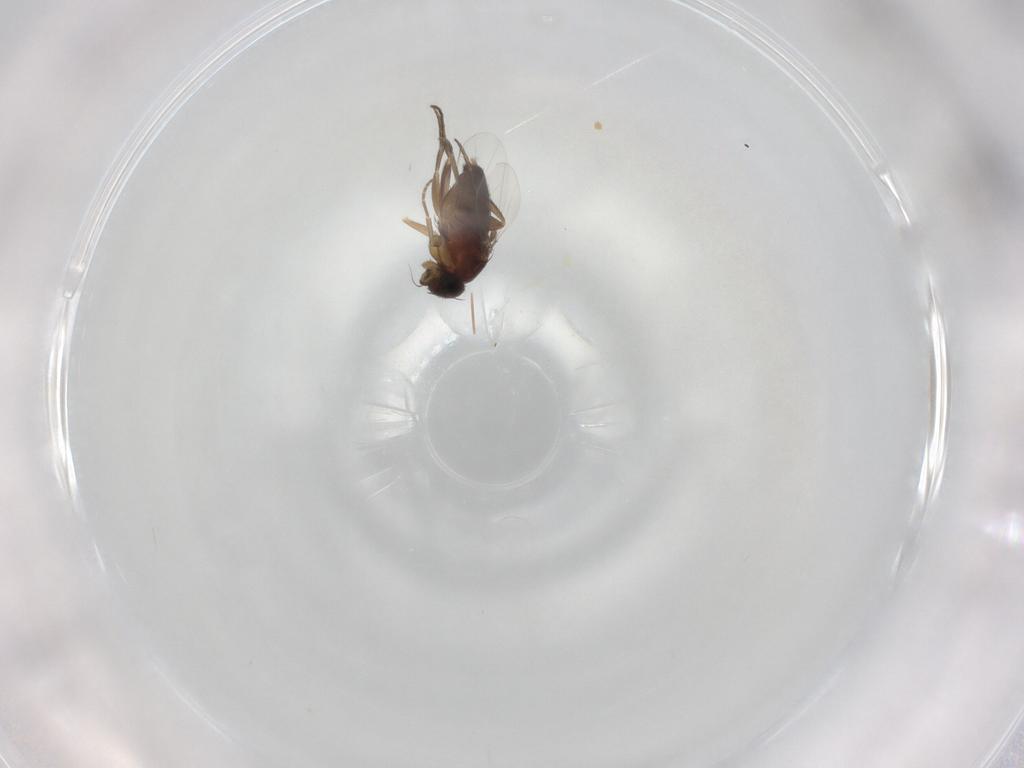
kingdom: Animalia
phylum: Arthropoda
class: Insecta
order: Diptera
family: Phoridae
